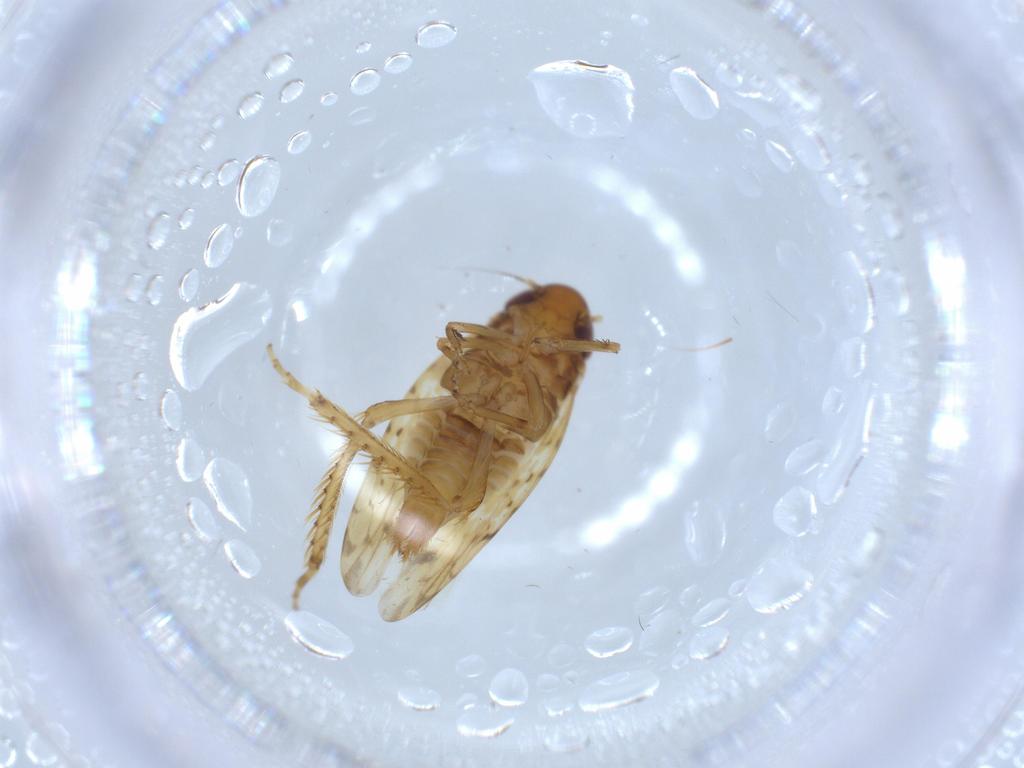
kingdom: Animalia
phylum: Arthropoda
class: Insecta
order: Hemiptera
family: Cicadellidae
